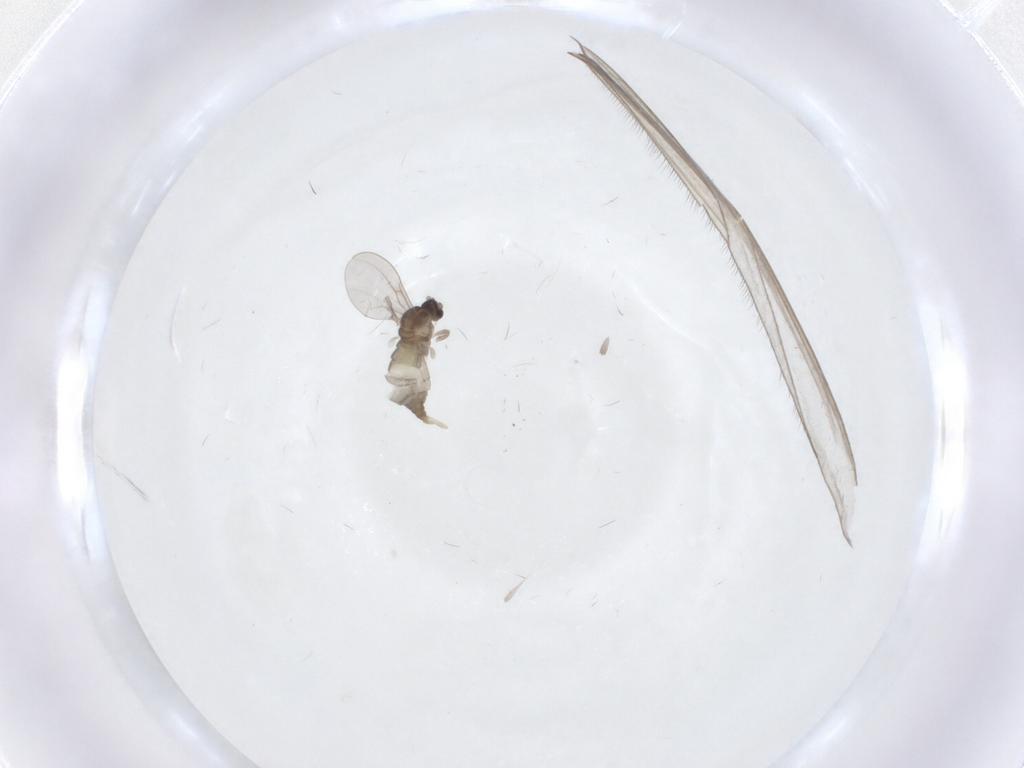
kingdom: Animalia
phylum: Arthropoda
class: Insecta
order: Diptera
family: Cecidomyiidae
